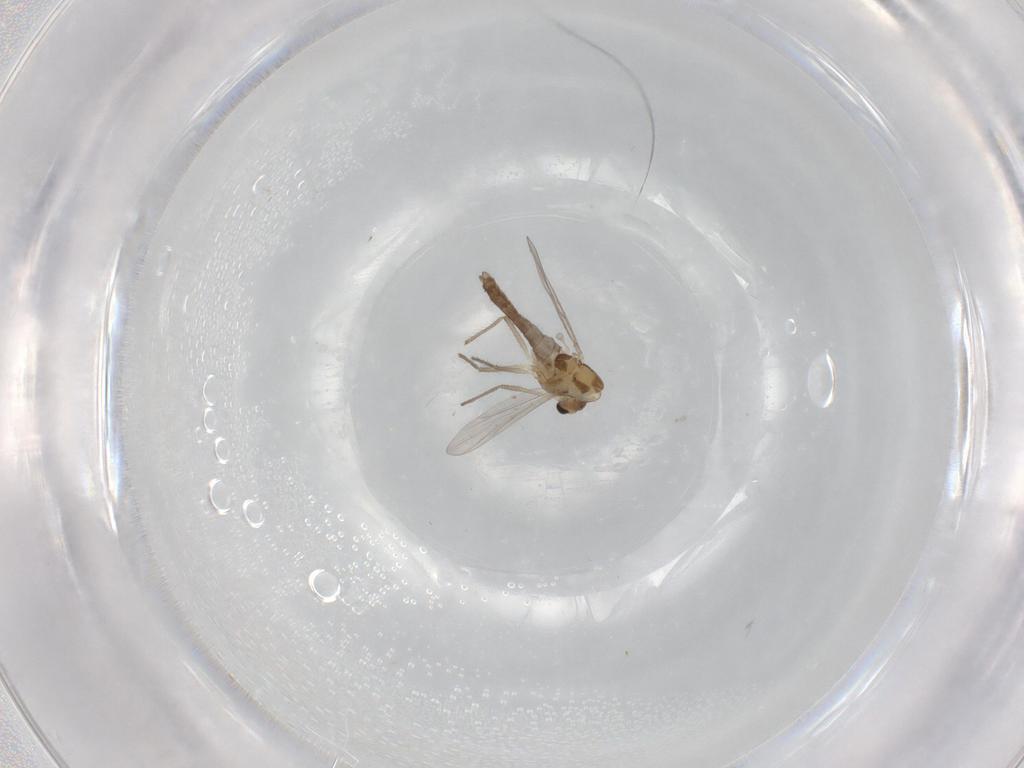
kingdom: Animalia
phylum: Arthropoda
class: Insecta
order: Diptera
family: Chironomidae
